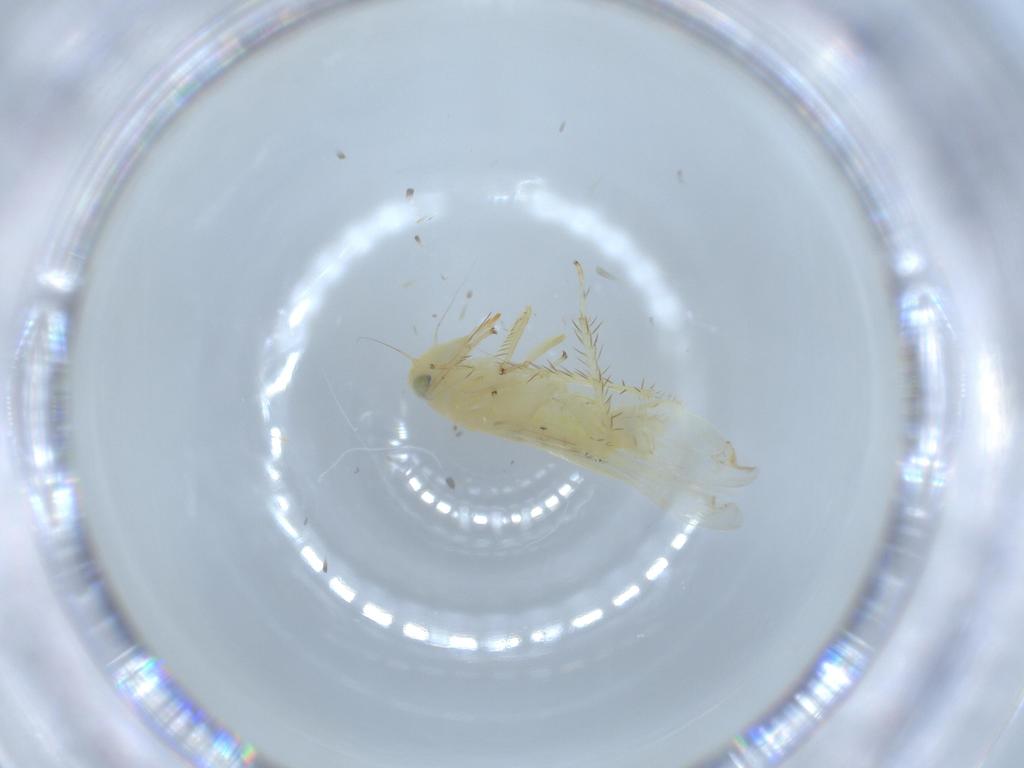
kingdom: Animalia
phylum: Arthropoda
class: Insecta
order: Hemiptera
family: Cicadellidae
